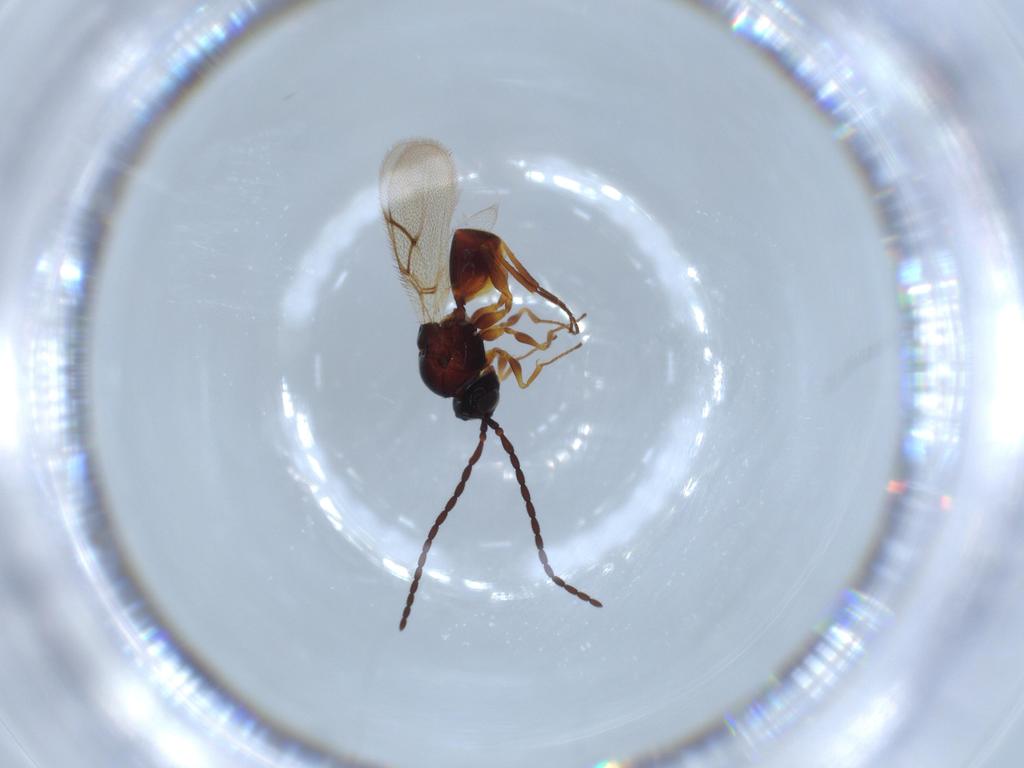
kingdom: Animalia
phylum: Arthropoda
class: Insecta
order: Hymenoptera
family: Figitidae
